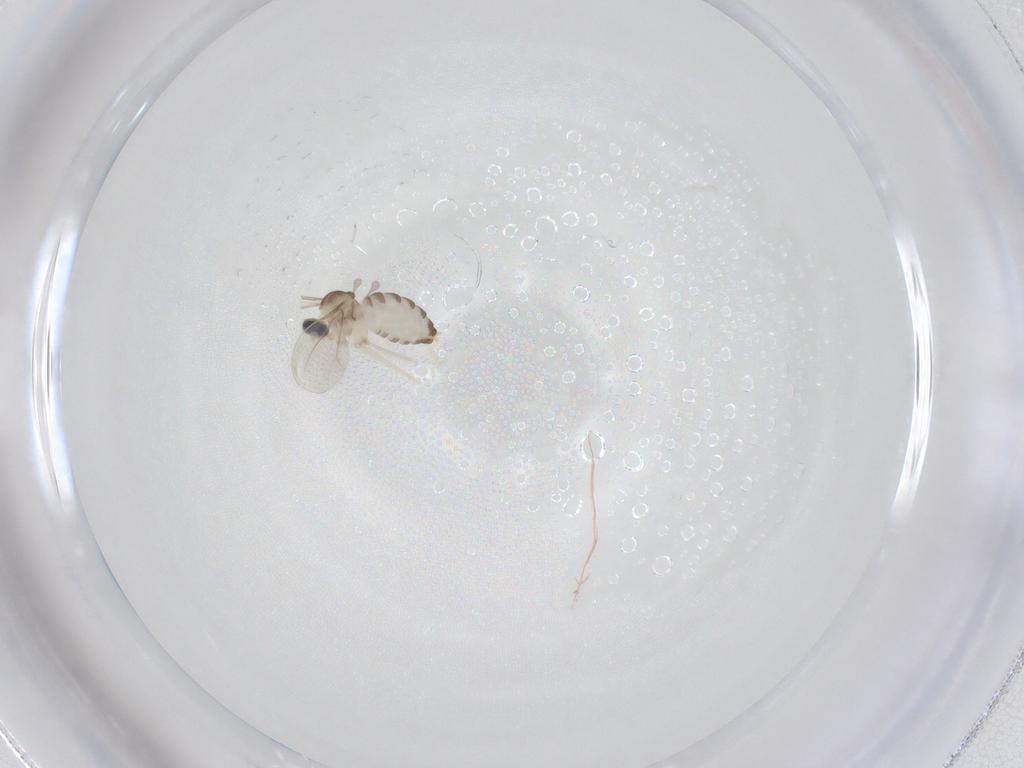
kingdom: Animalia
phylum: Arthropoda
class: Insecta
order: Diptera
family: Cecidomyiidae
